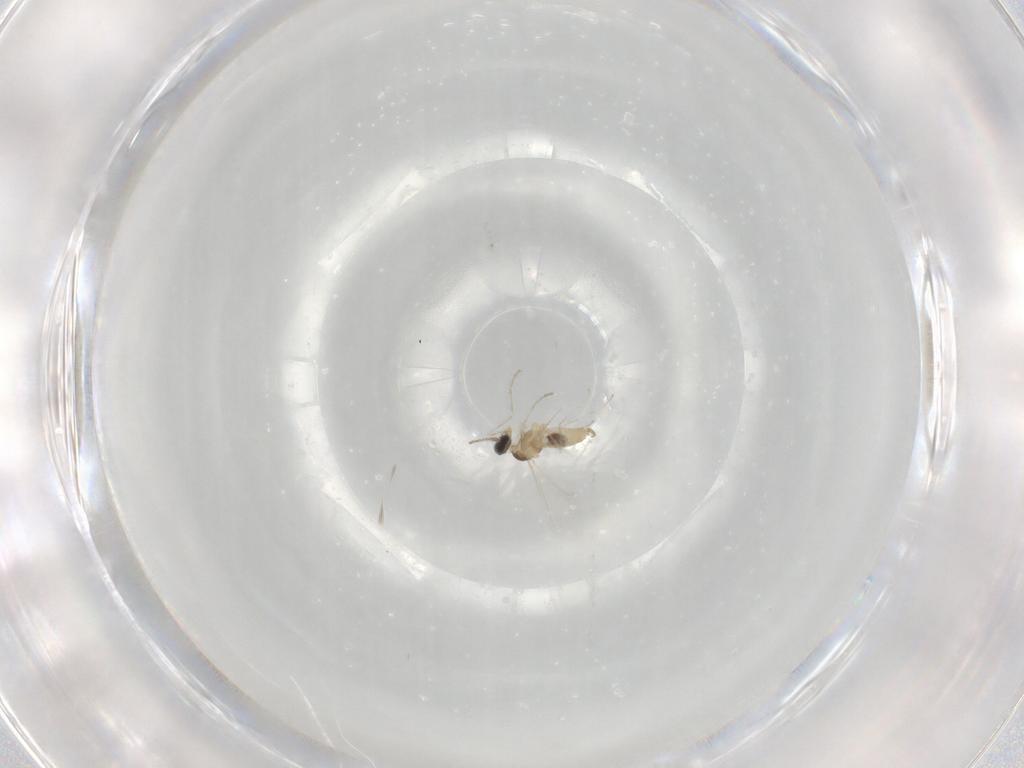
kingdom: Animalia
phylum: Arthropoda
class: Insecta
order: Diptera
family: Cecidomyiidae
